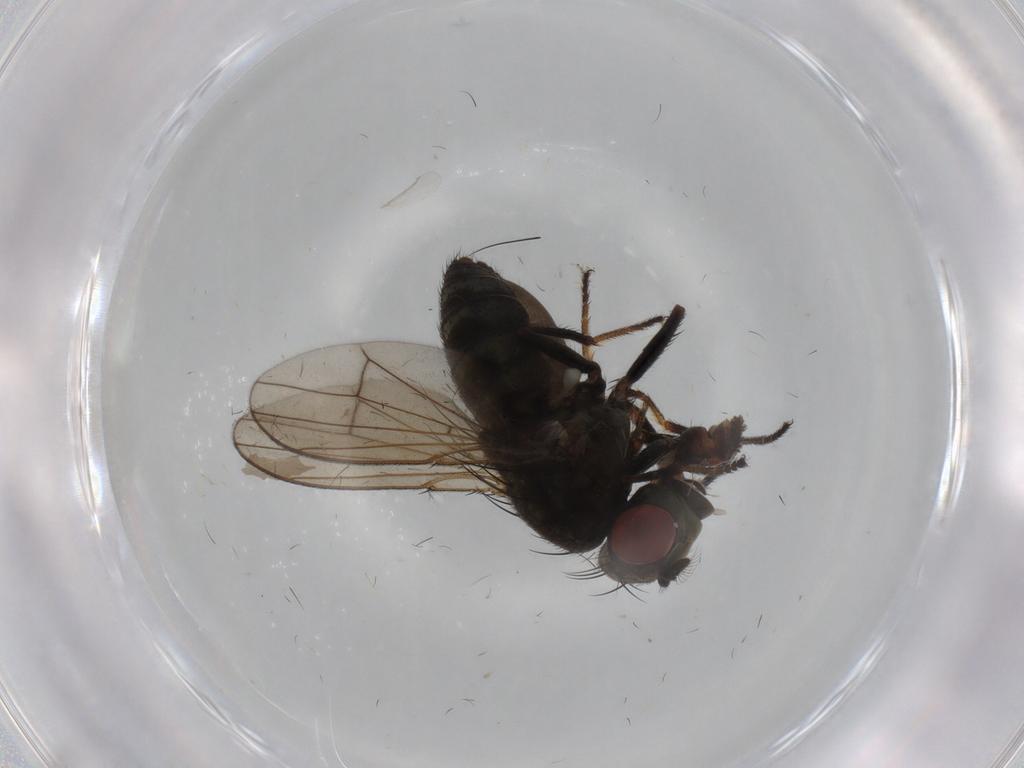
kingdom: Animalia
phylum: Arthropoda
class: Insecta
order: Diptera
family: Ephydridae
